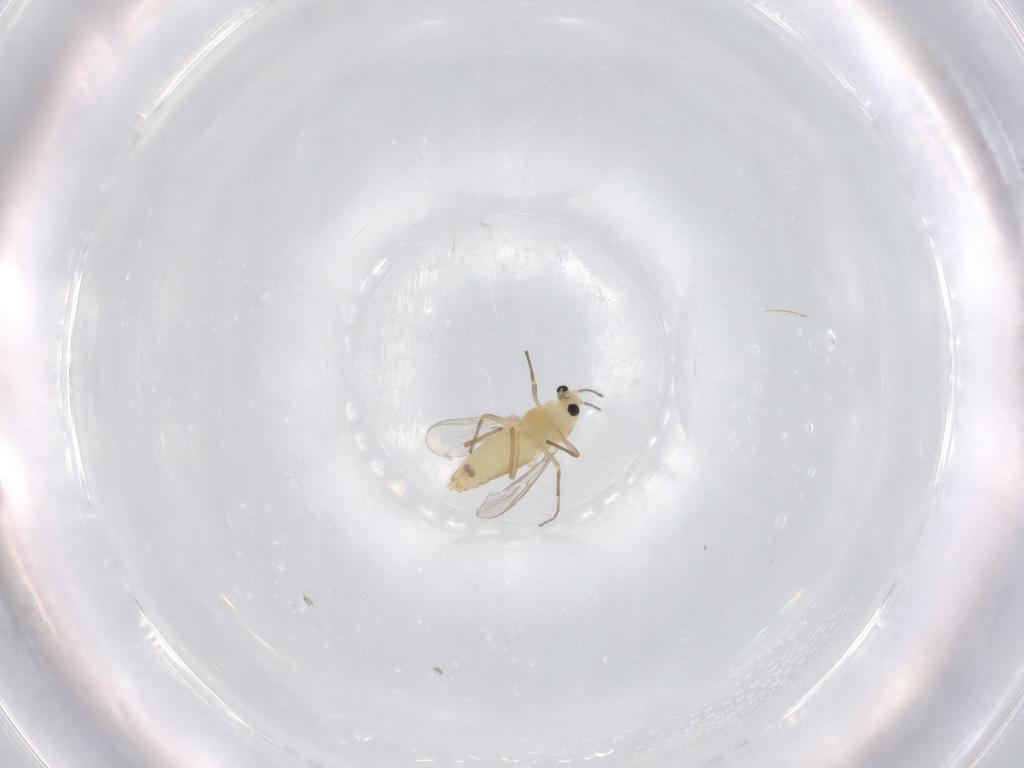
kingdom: Animalia
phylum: Arthropoda
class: Insecta
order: Diptera
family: Chironomidae
